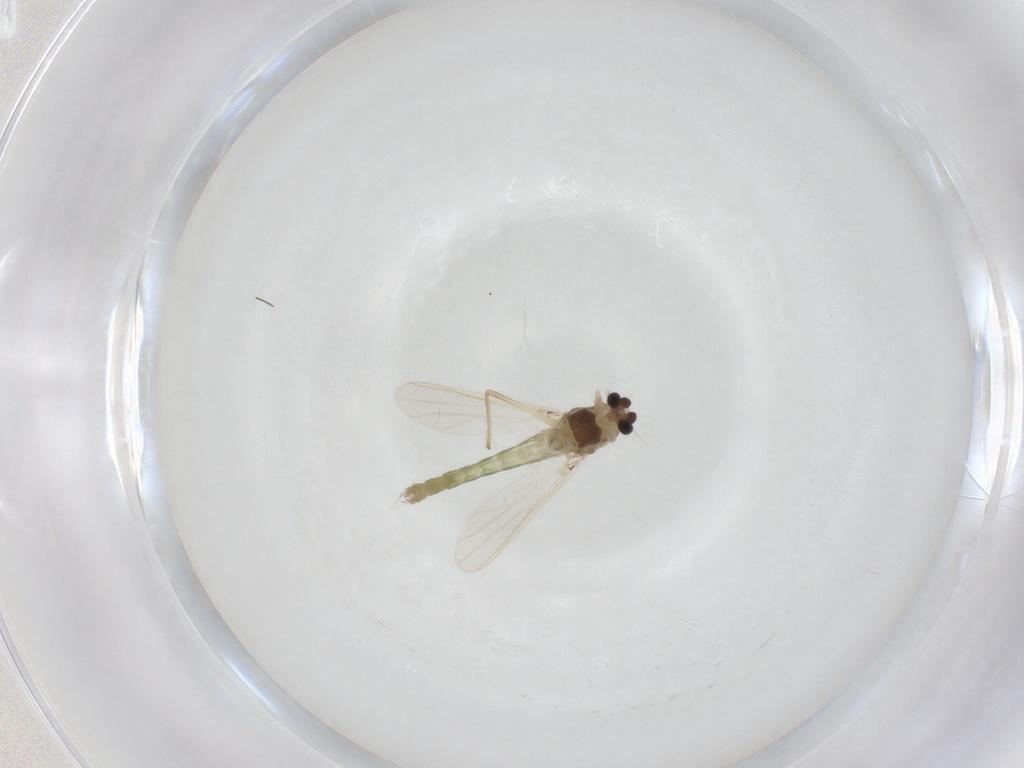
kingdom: Animalia
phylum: Arthropoda
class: Insecta
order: Diptera
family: Chironomidae
